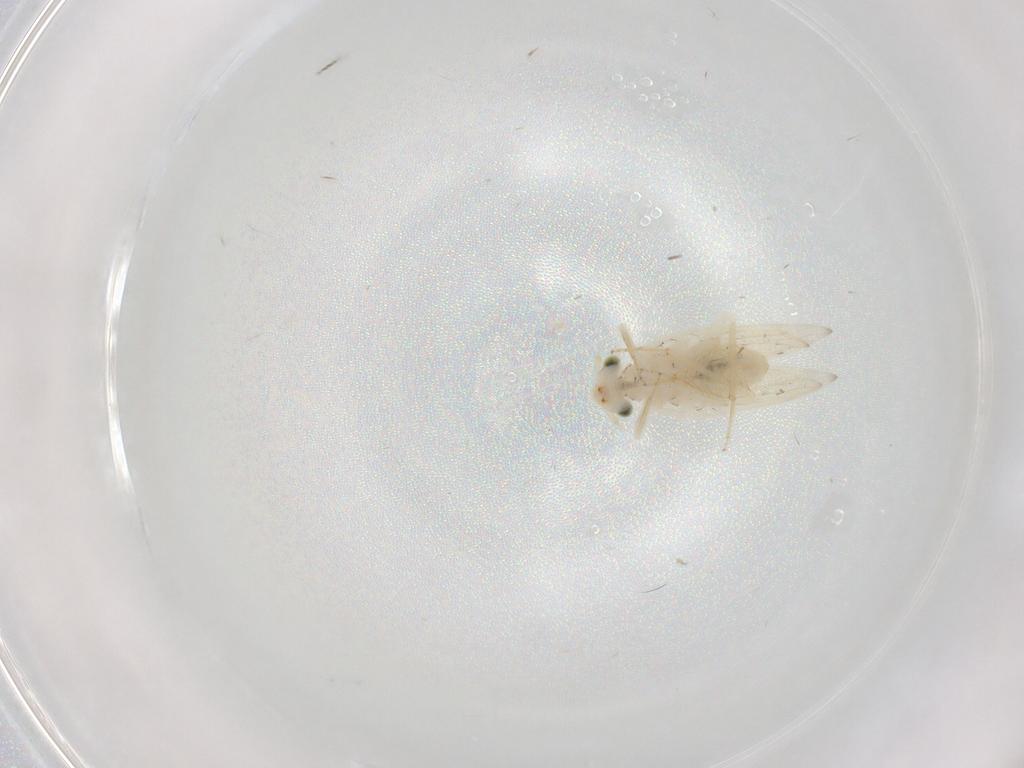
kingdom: Animalia
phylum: Arthropoda
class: Insecta
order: Psocodea
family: Lepidopsocidae
